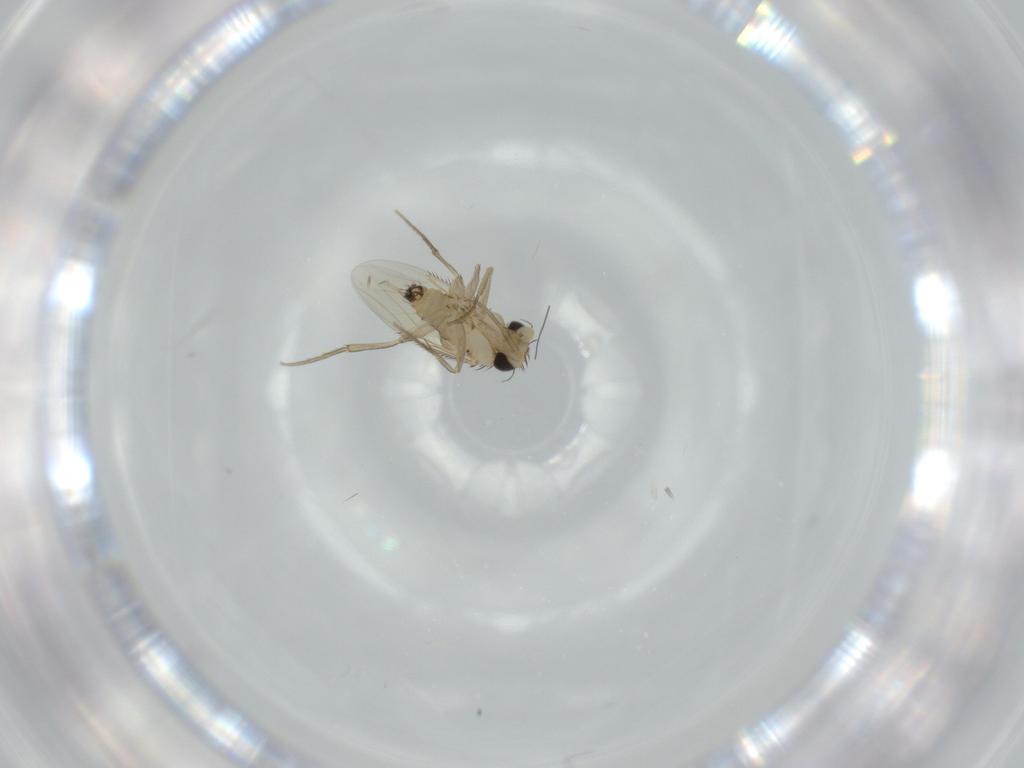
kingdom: Animalia
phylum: Arthropoda
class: Insecta
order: Diptera
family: Phoridae
